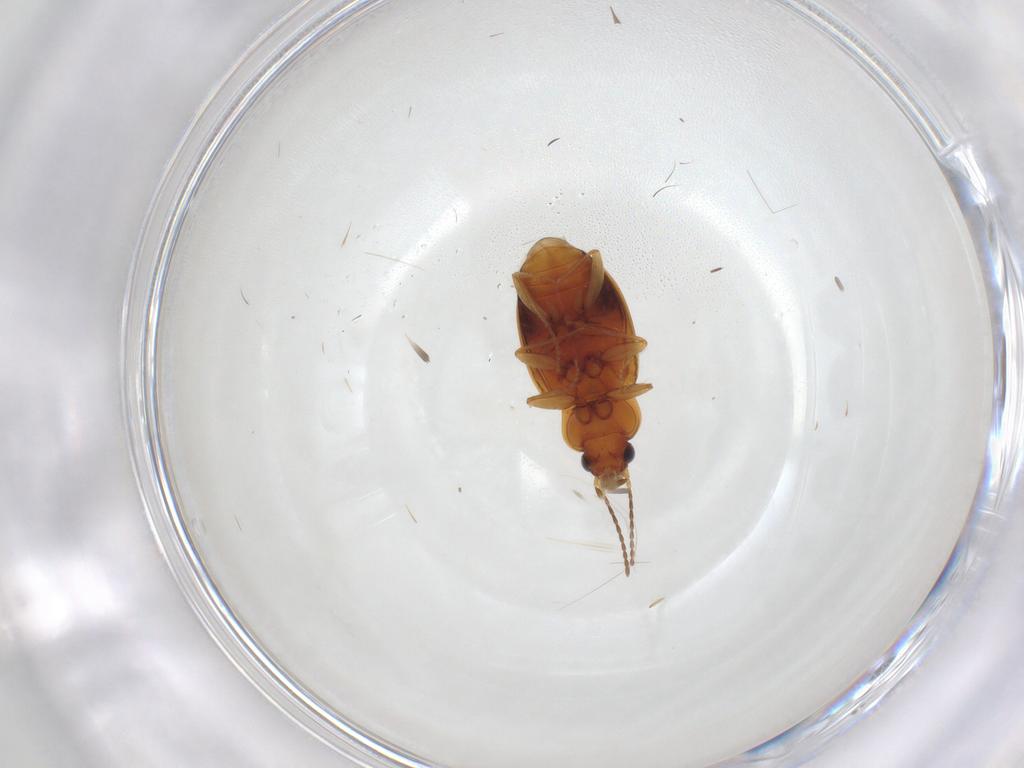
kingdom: Animalia
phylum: Arthropoda
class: Insecta
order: Coleoptera
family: Carabidae
